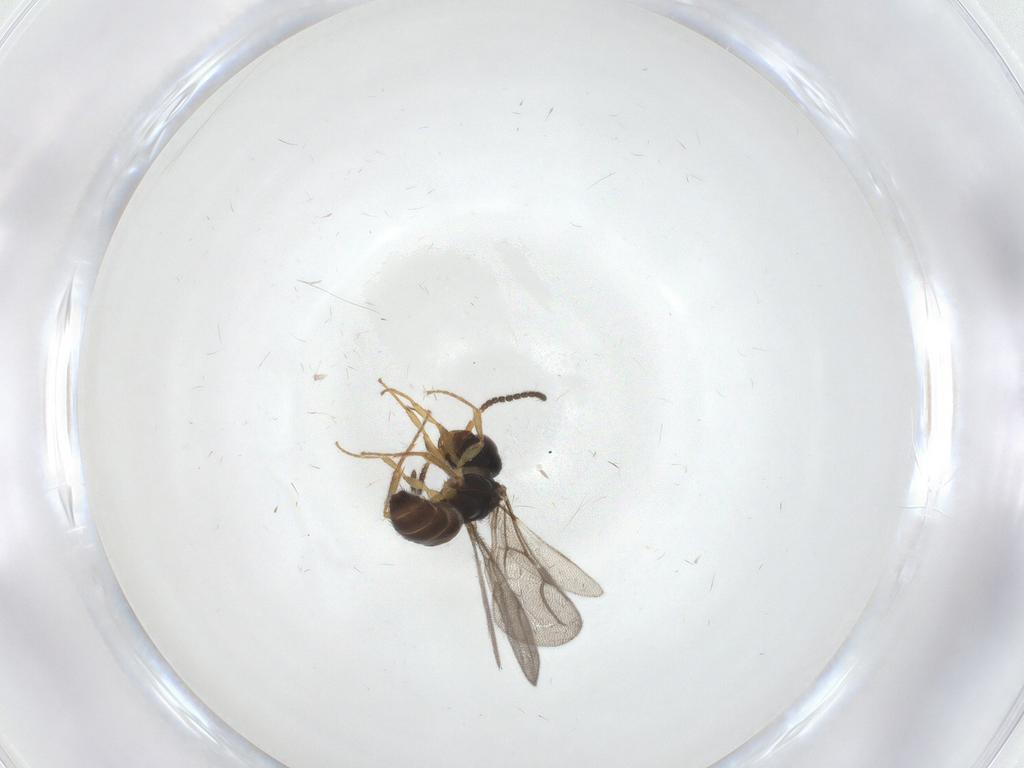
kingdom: Animalia
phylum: Arthropoda
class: Insecta
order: Hymenoptera
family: Bethylidae
